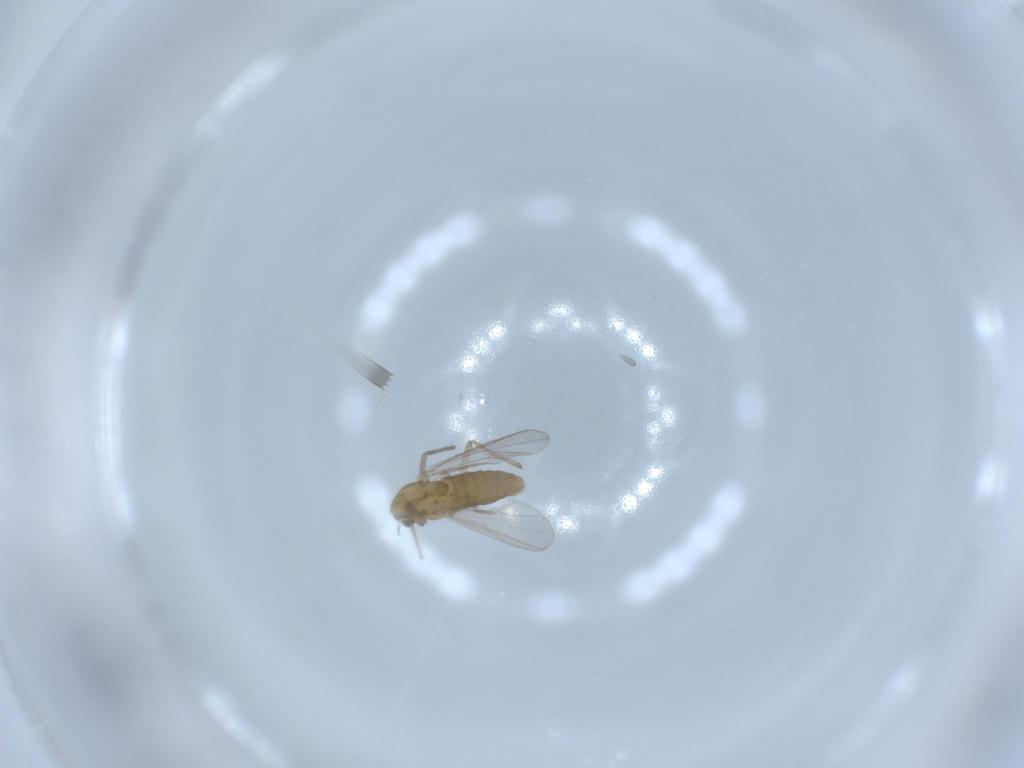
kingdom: Animalia
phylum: Arthropoda
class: Insecta
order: Diptera
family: Chironomidae
